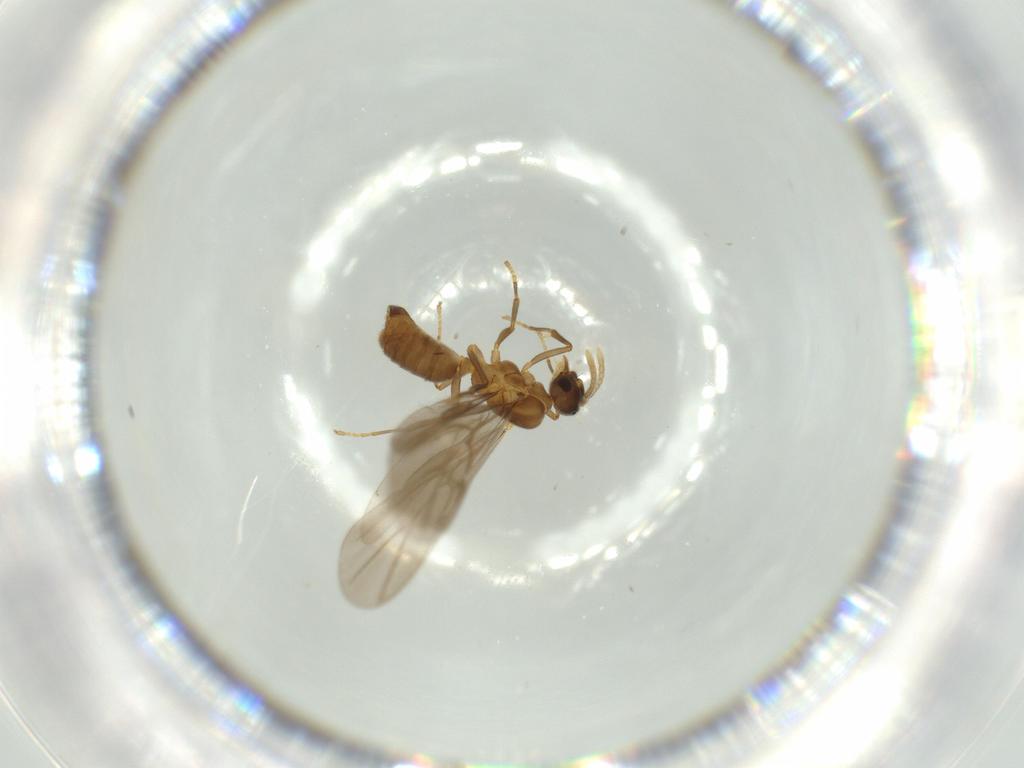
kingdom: Animalia
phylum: Arthropoda
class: Insecta
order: Hymenoptera
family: Formicidae
